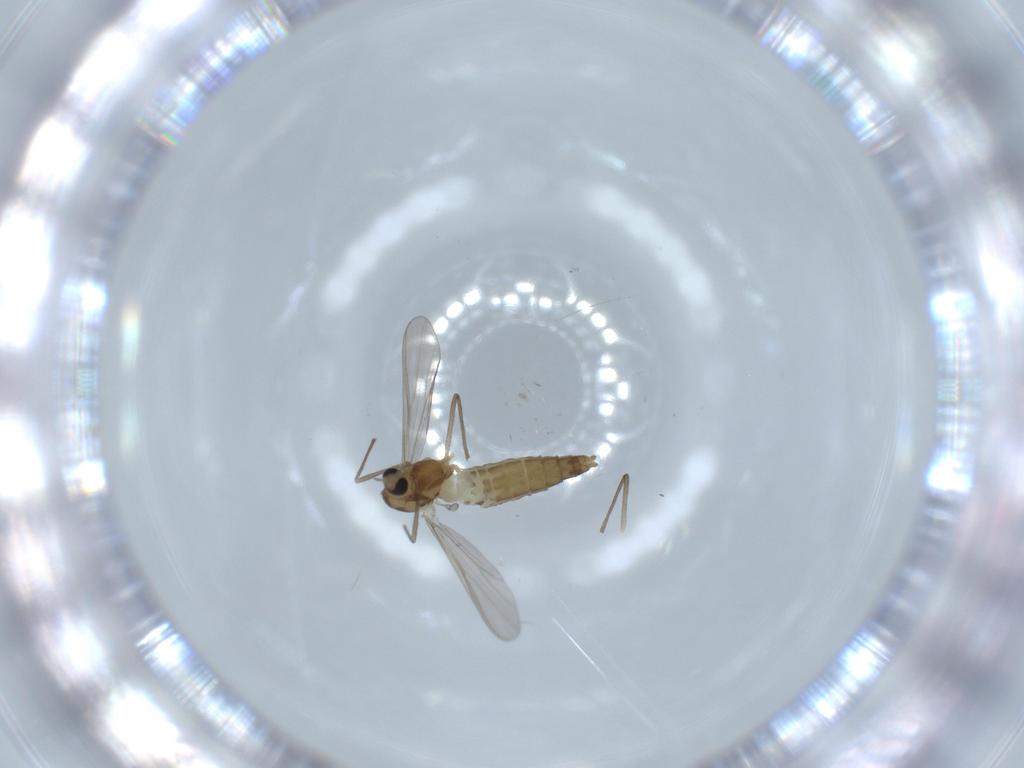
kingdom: Animalia
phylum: Arthropoda
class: Insecta
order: Diptera
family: Chironomidae
